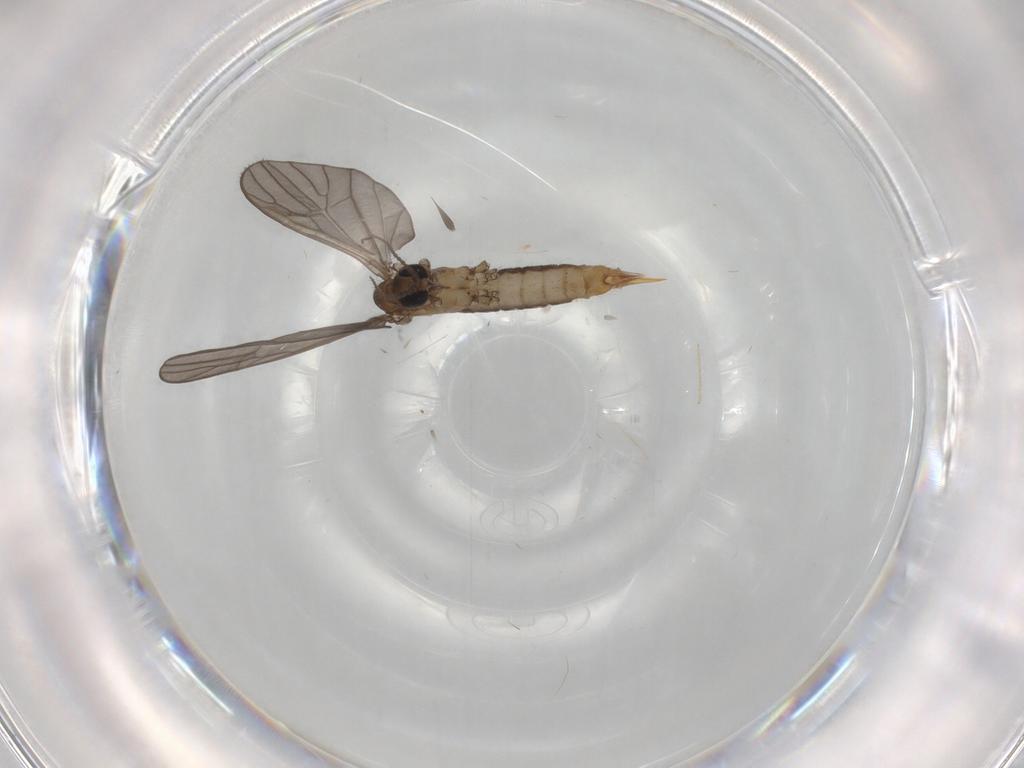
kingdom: Animalia
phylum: Arthropoda
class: Insecta
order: Diptera
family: Limoniidae
